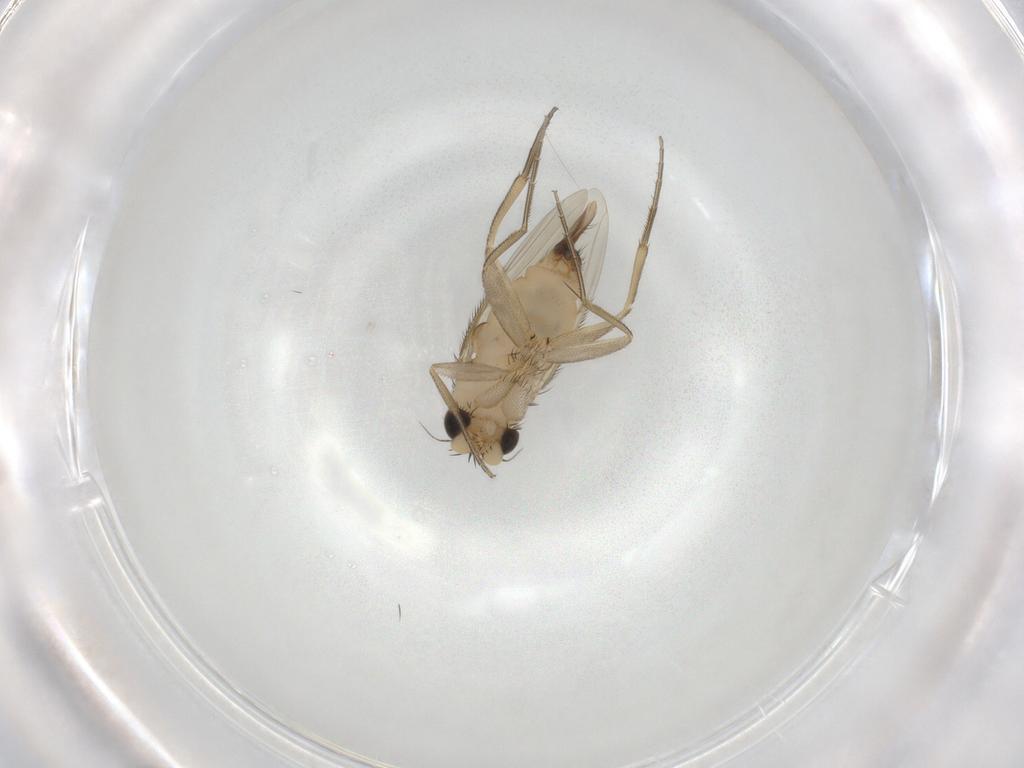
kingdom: Animalia
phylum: Arthropoda
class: Insecta
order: Diptera
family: Phoridae
